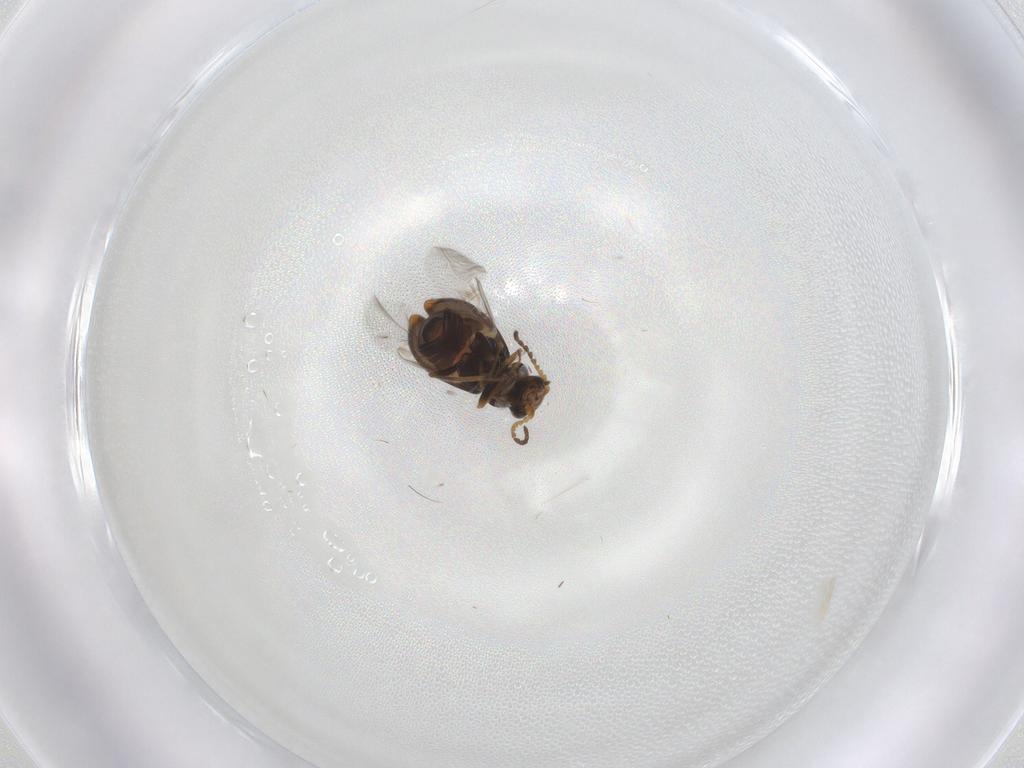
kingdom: Animalia
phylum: Arthropoda
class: Insecta
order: Coleoptera
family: Melyridae
